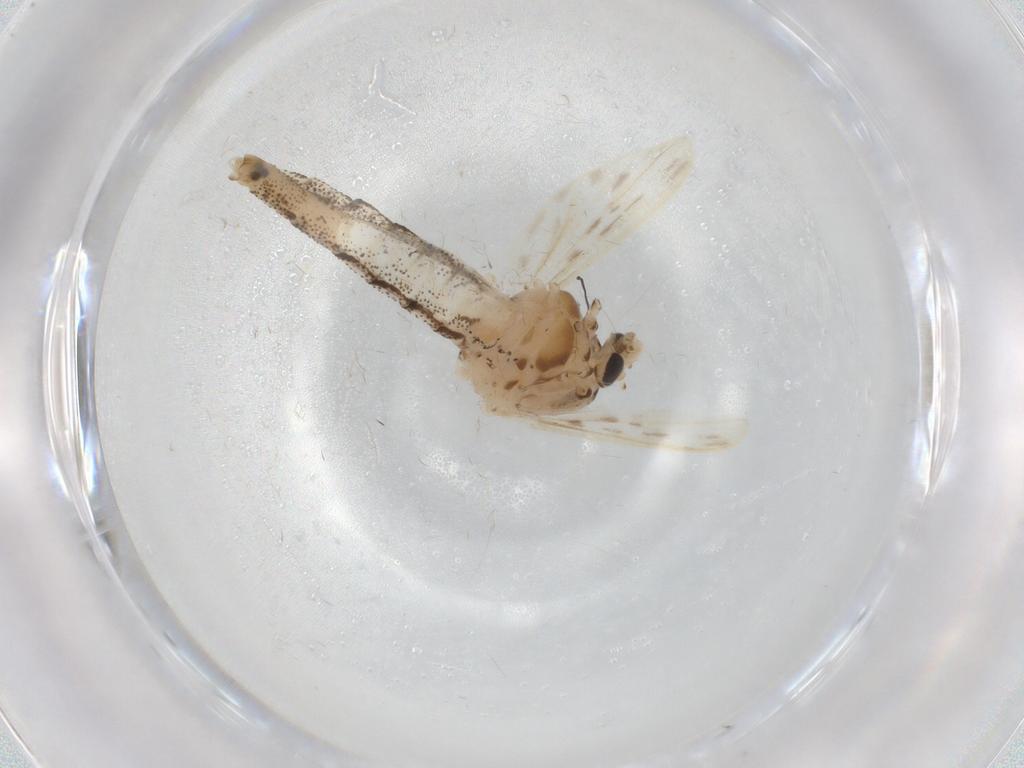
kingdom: Animalia
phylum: Arthropoda
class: Insecta
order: Diptera
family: Chaoboridae
